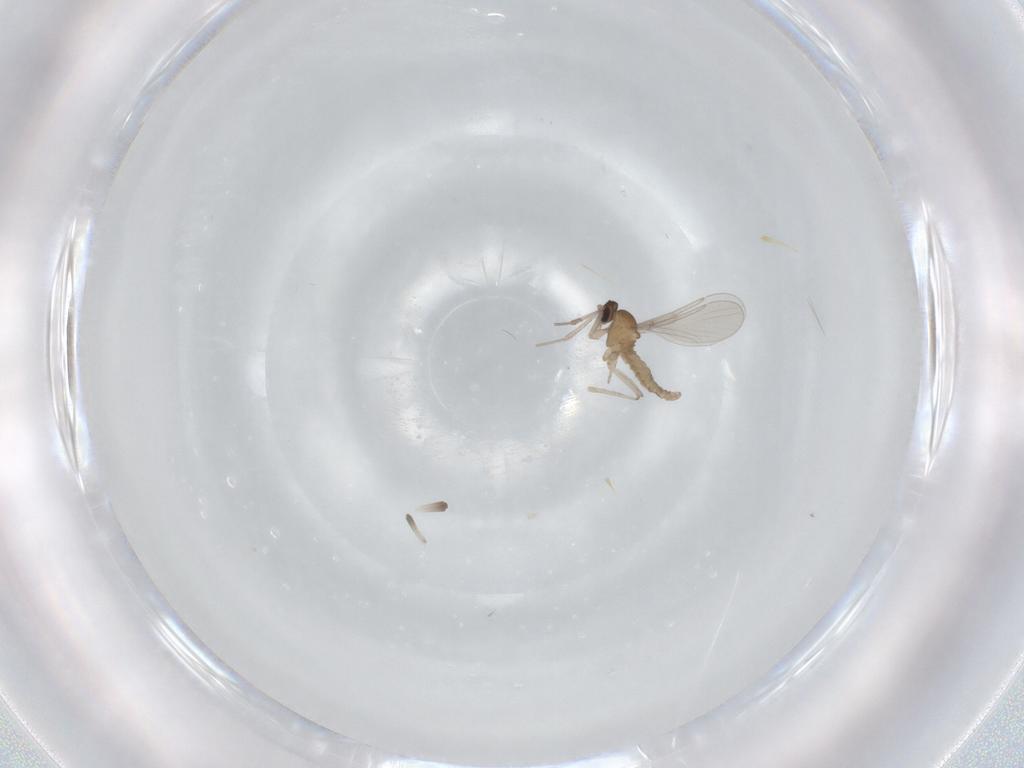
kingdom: Animalia
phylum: Arthropoda
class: Insecta
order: Diptera
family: Cecidomyiidae
